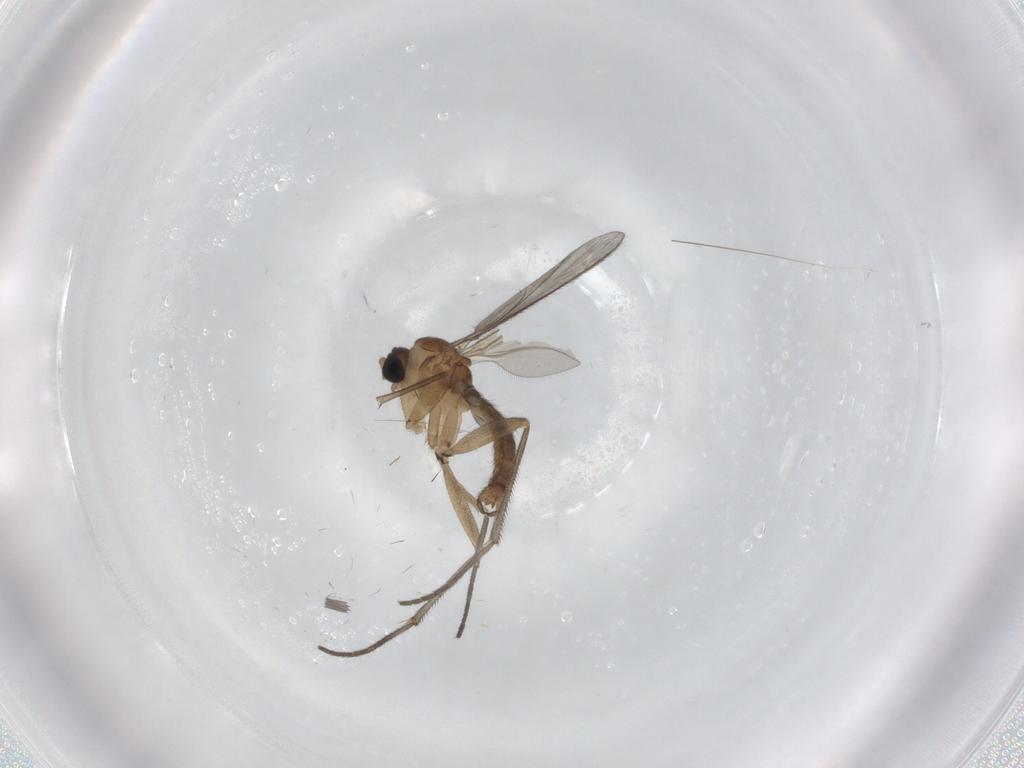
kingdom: Animalia
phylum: Arthropoda
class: Insecta
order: Diptera
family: Sciaridae
